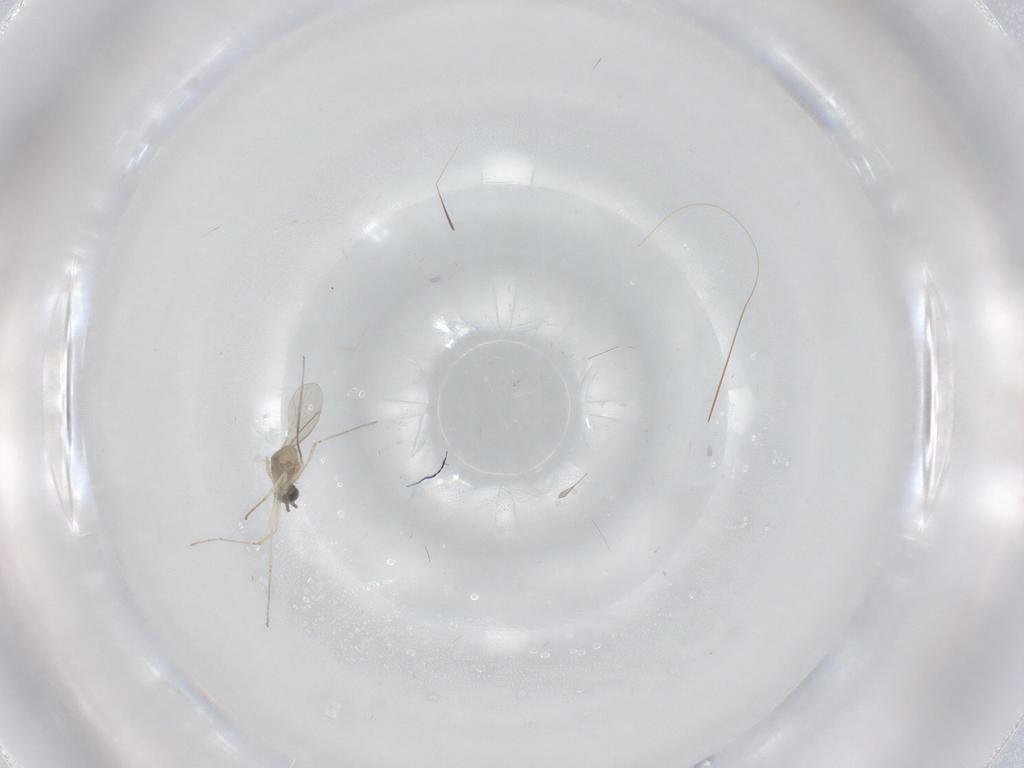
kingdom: Animalia
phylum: Arthropoda
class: Insecta
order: Diptera
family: Cecidomyiidae
